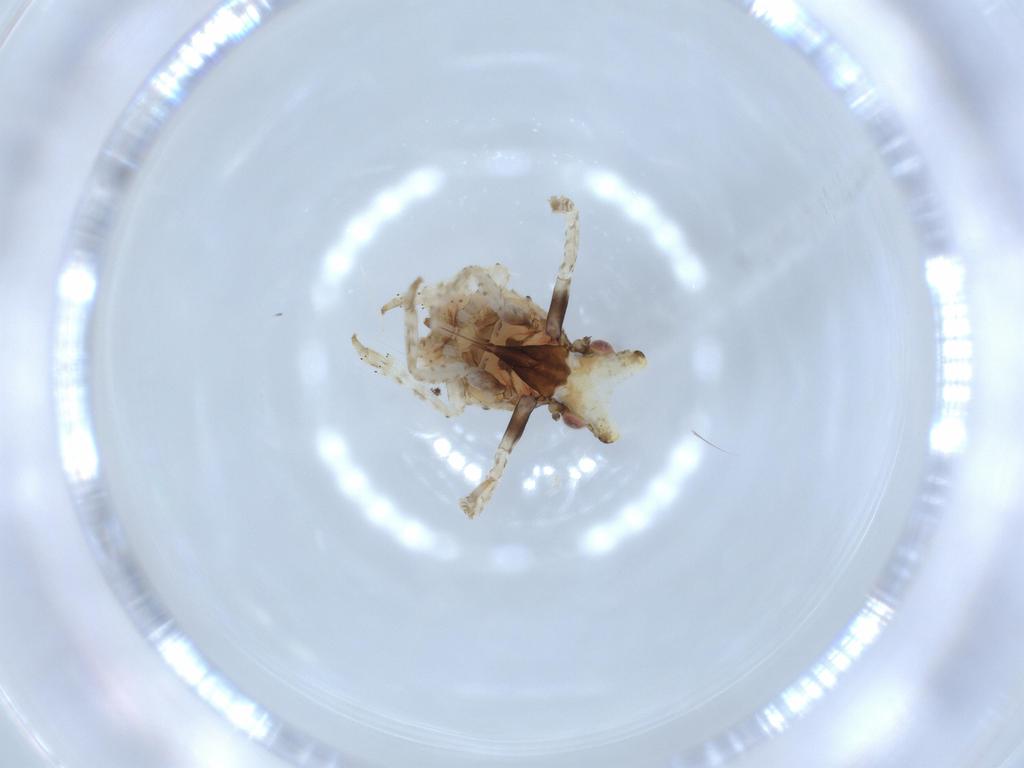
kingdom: Animalia
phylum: Arthropoda
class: Insecta
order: Hemiptera
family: Fulgoridae
